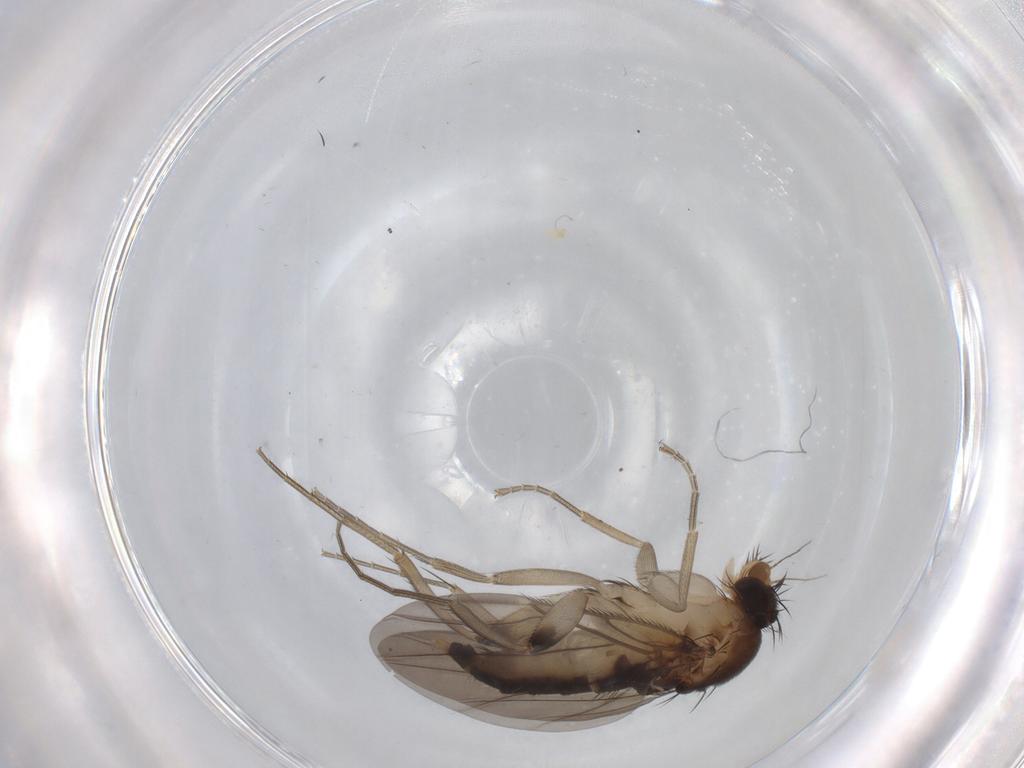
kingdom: Animalia
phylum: Arthropoda
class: Insecta
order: Diptera
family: Phoridae
